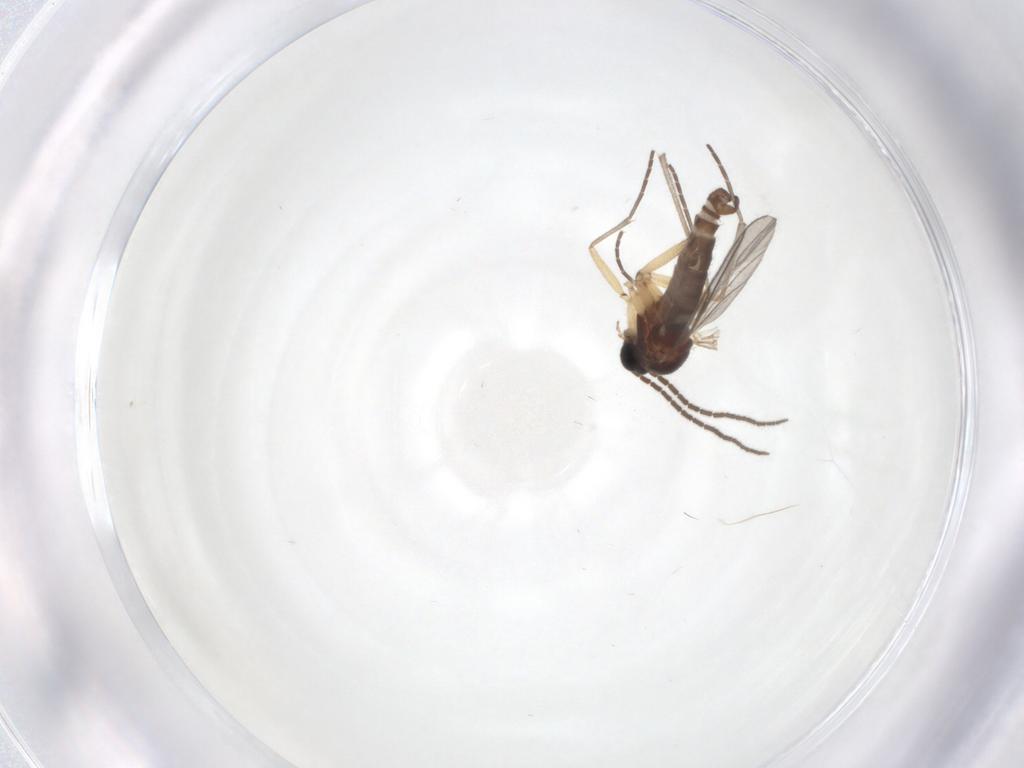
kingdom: Animalia
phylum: Arthropoda
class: Insecta
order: Diptera
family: Sciaridae
